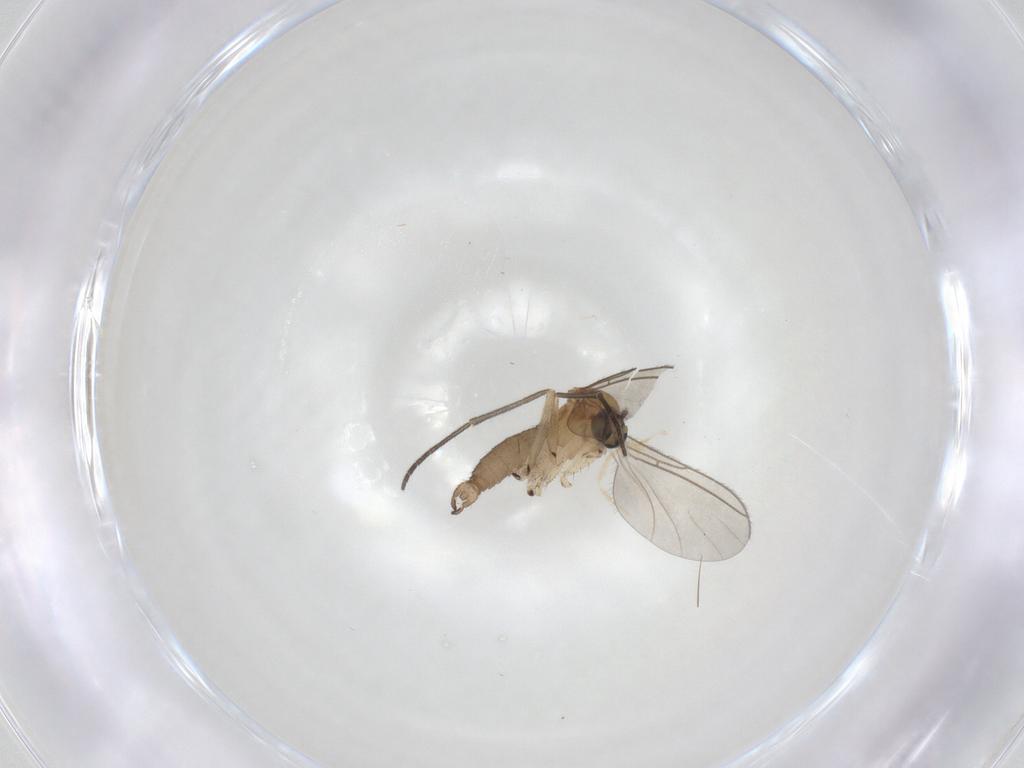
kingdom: Animalia
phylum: Arthropoda
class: Insecta
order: Diptera
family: Sciaridae
